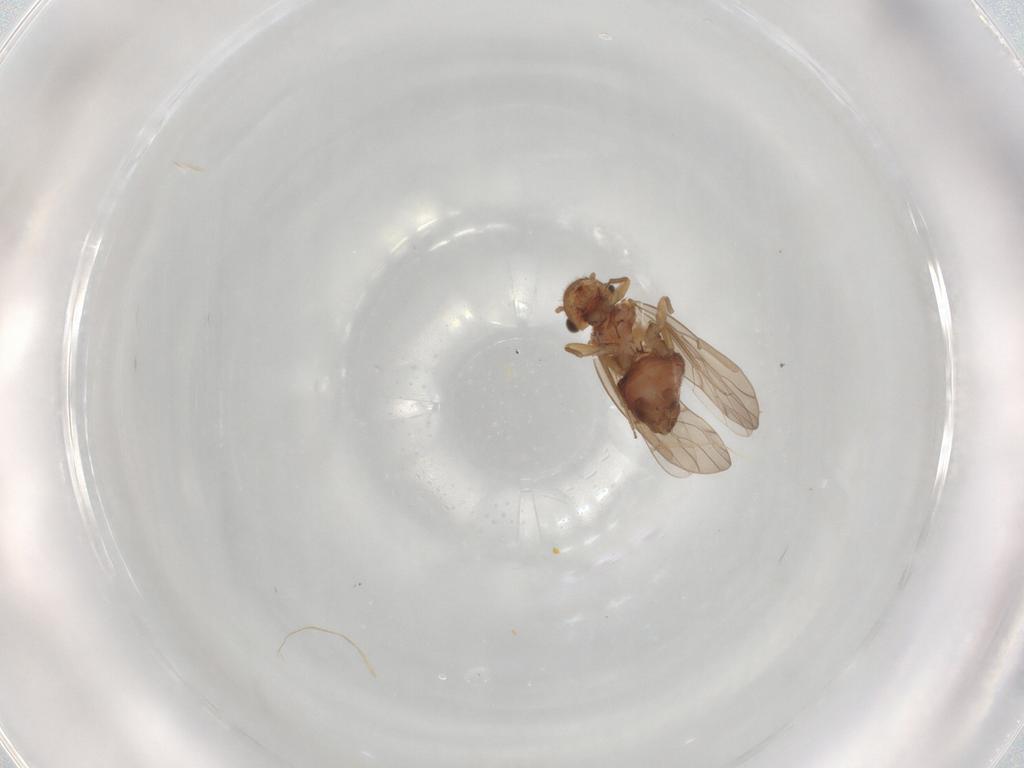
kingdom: Animalia
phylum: Arthropoda
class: Insecta
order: Psocodea
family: Ectopsocidae
